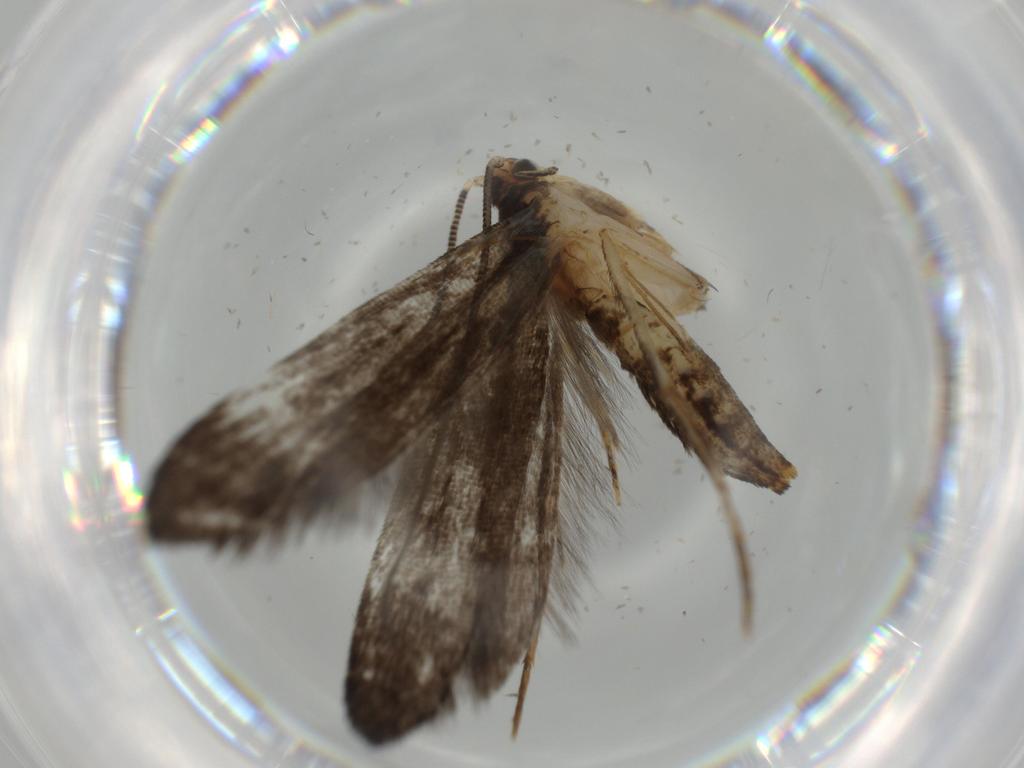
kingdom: Animalia
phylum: Arthropoda
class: Insecta
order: Lepidoptera
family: Tineidae
